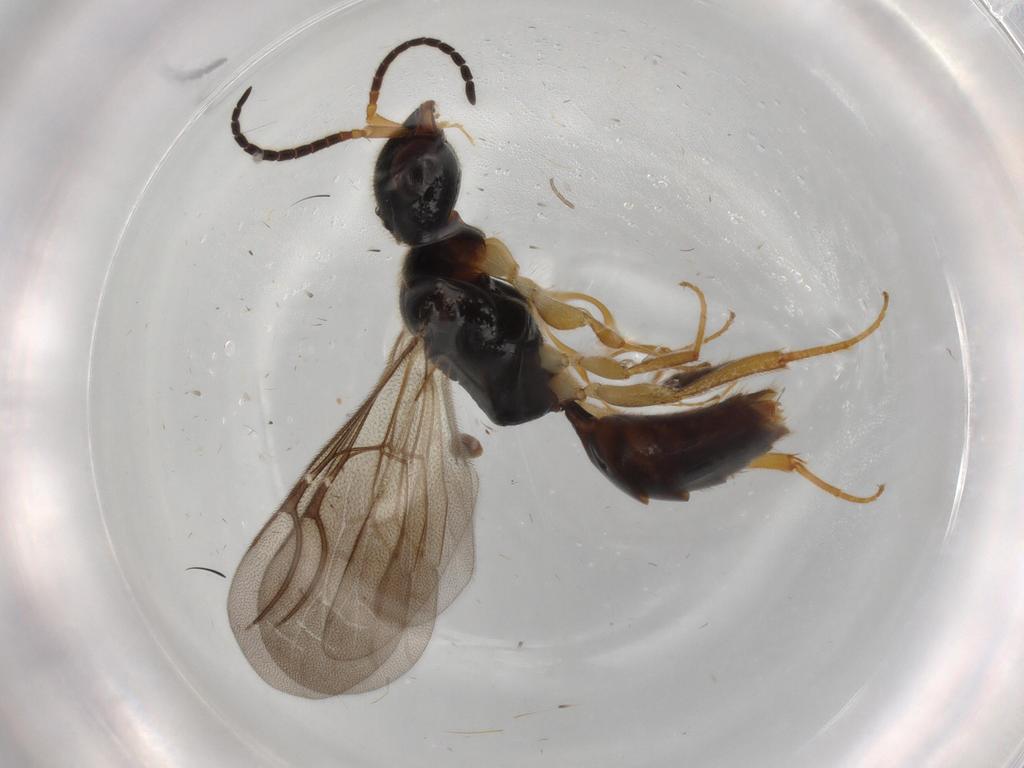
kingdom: Animalia
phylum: Arthropoda
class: Insecta
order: Hymenoptera
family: Bethylidae
